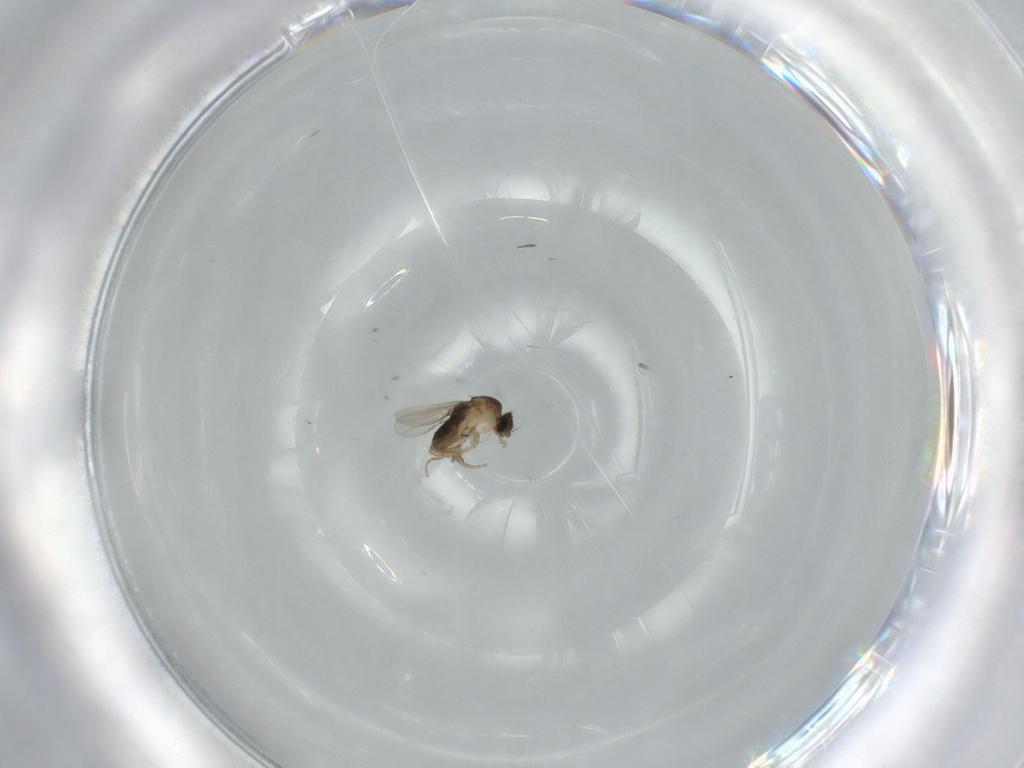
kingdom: Animalia
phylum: Arthropoda
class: Insecta
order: Diptera
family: Phoridae
